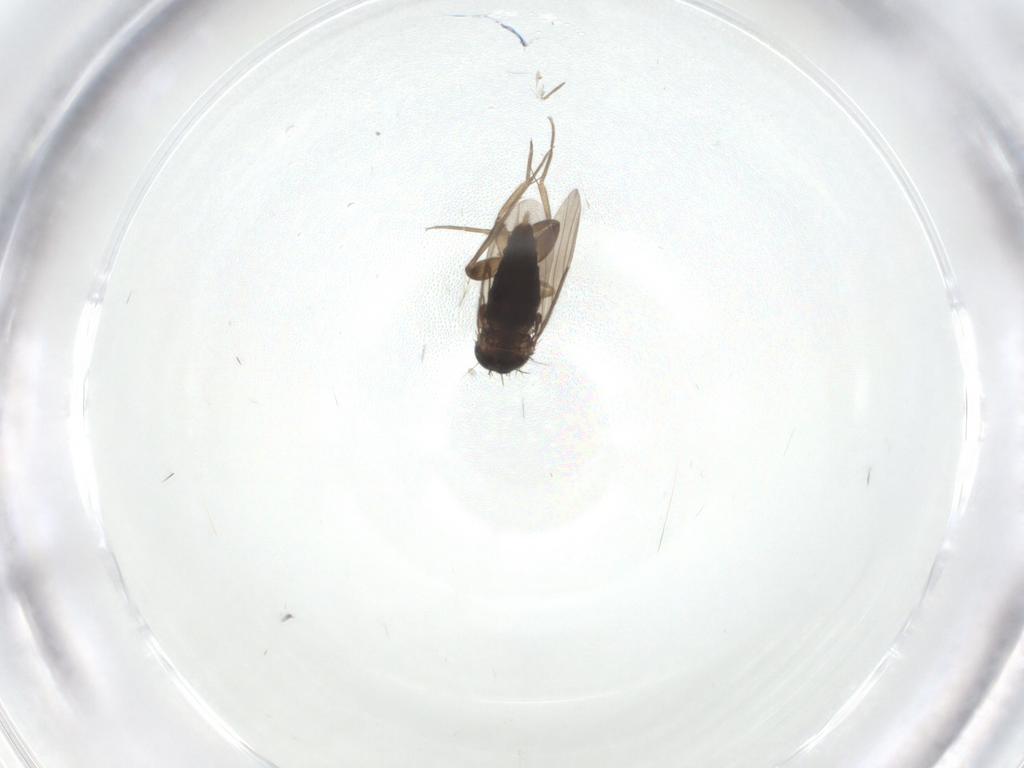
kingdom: Animalia
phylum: Arthropoda
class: Insecta
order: Diptera
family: Phoridae
